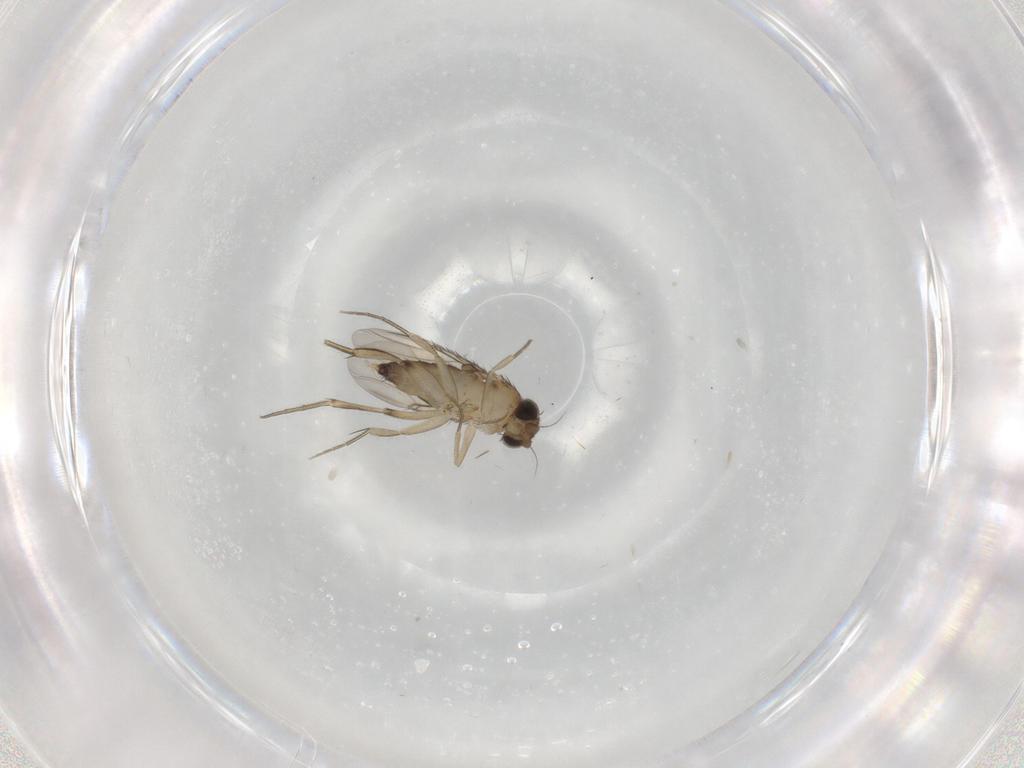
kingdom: Animalia
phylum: Arthropoda
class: Insecta
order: Diptera
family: Phoridae
